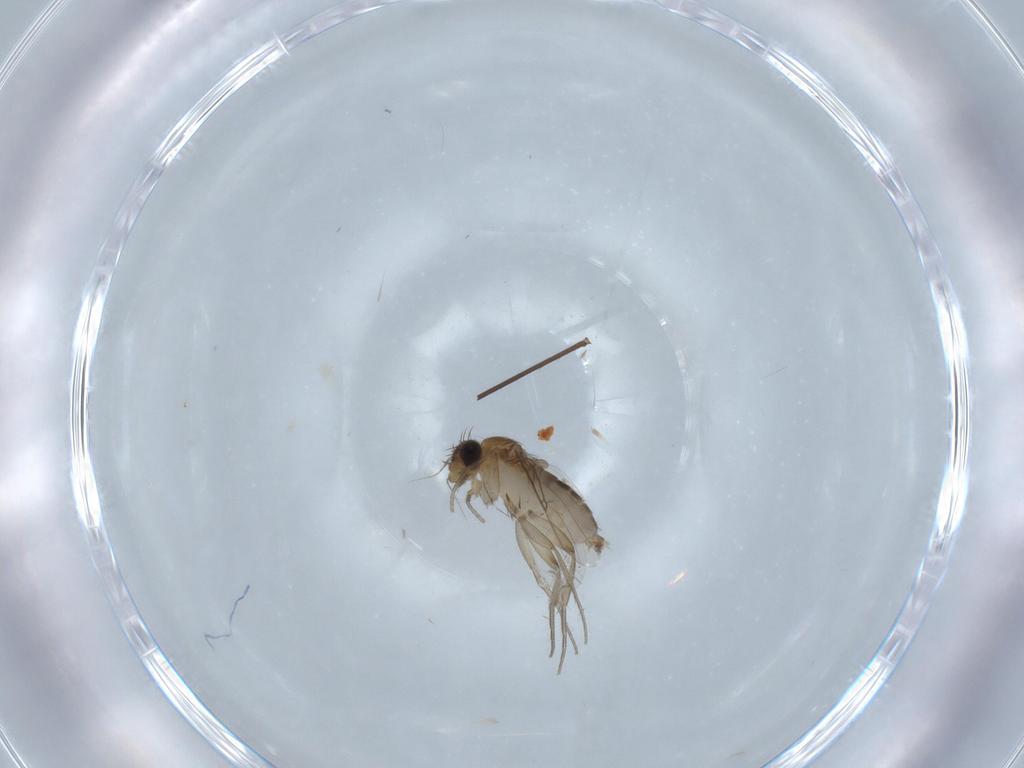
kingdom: Animalia
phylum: Arthropoda
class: Insecta
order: Diptera
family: Phoridae
